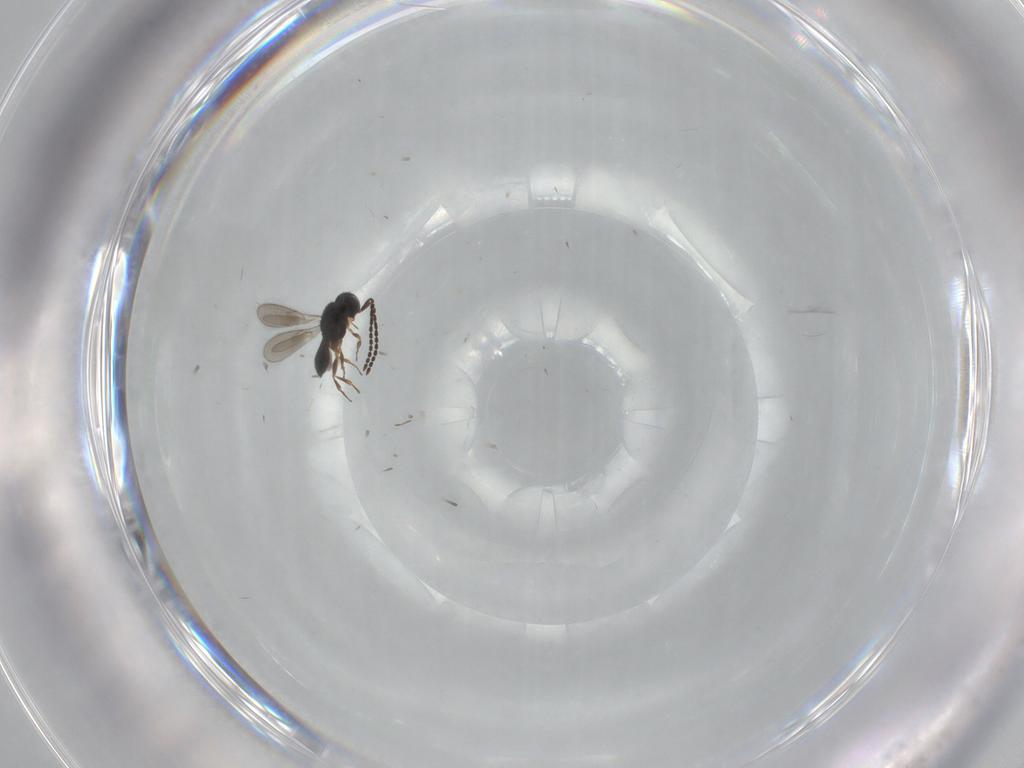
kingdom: Animalia
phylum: Arthropoda
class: Insecta
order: Hymenoptera
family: Scelionidae
